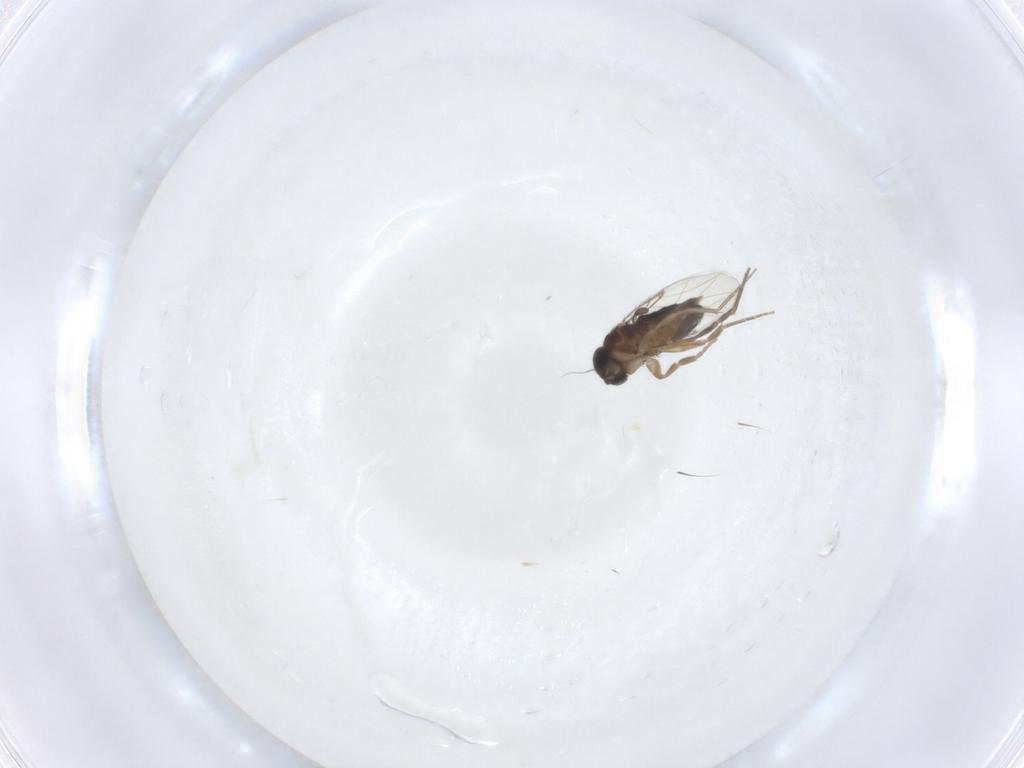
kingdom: Animalia
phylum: Arthropoda
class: Insecta
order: Diptera
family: Phoridae
